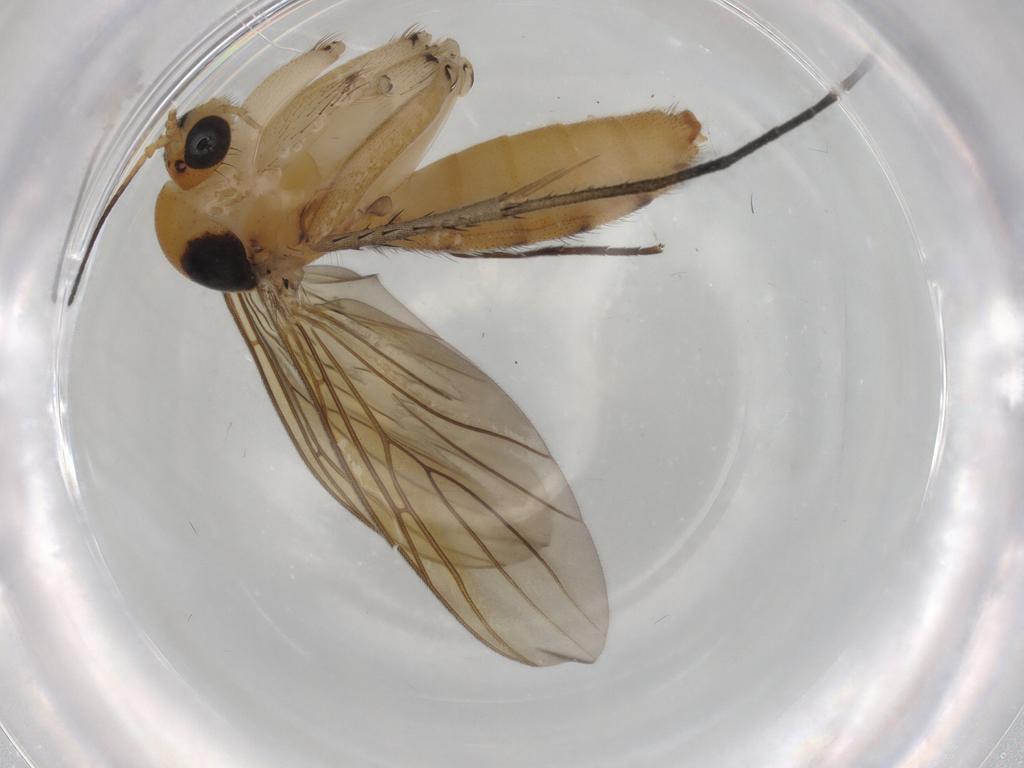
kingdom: Animalia
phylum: Arthropoda
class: Insecta
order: Diptera
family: Mycetophilidae
